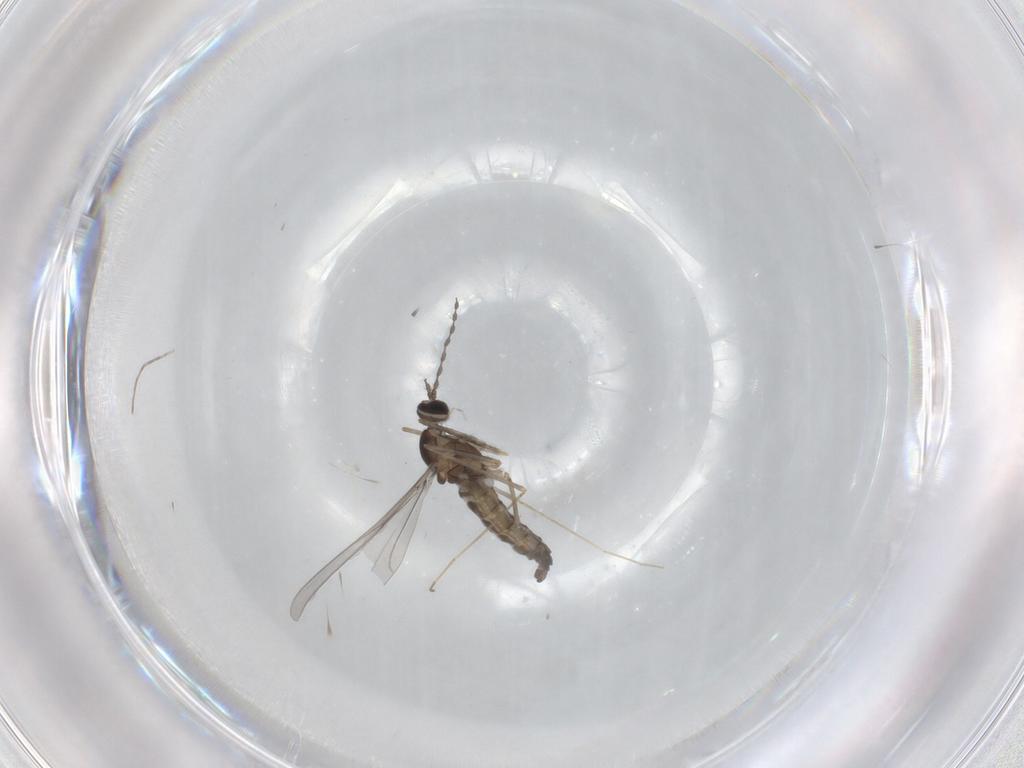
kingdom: Animalia
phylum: Arthropoda
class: Insecta
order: Diptera
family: Cecidomyiidae
